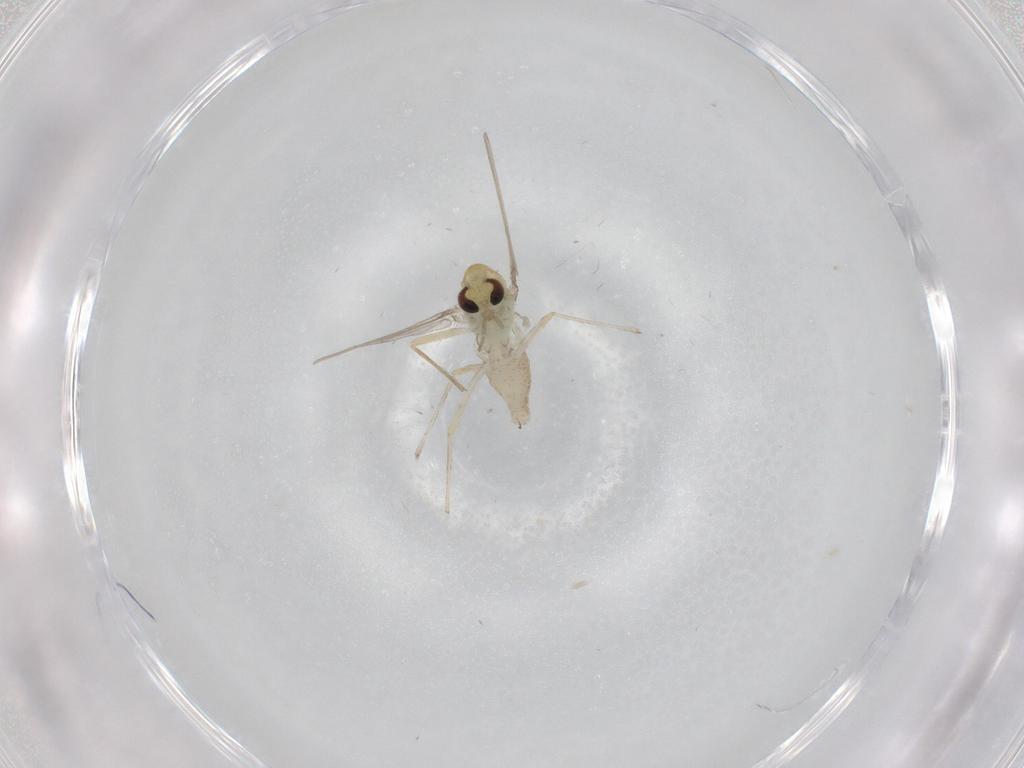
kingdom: Animalia
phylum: Arthropoda
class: Insecta
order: Diptera
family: Chironomidae
